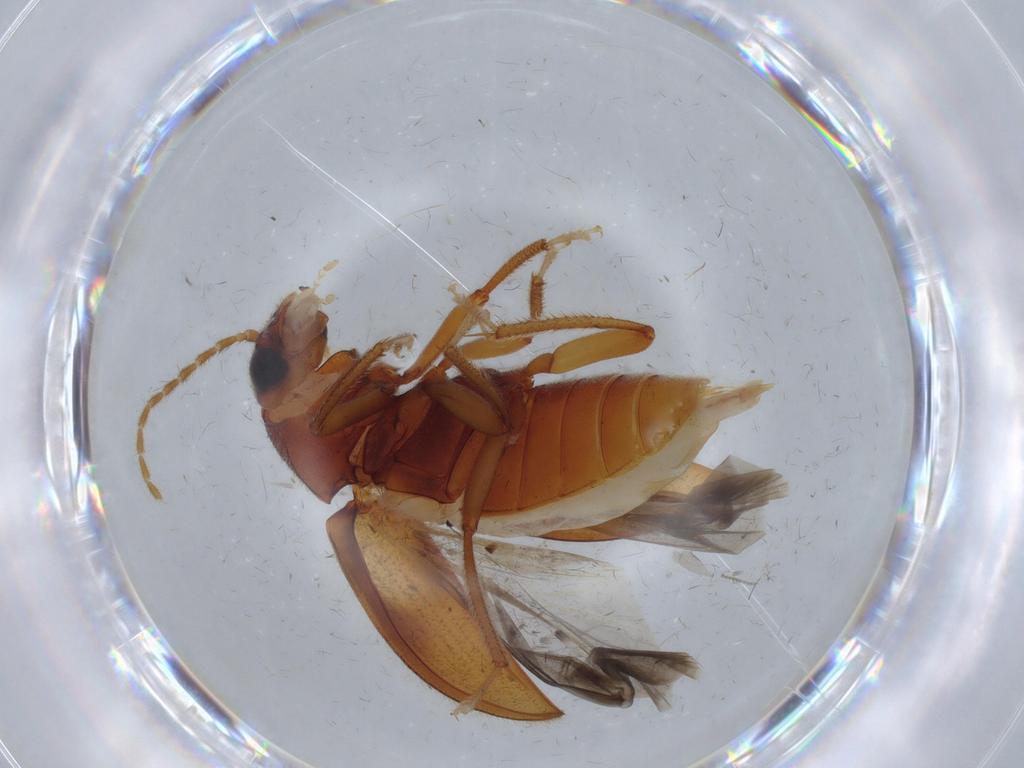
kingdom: Animalia
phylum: Arthropoda
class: Insecta
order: Coleoptera
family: Ptilodactylidae
